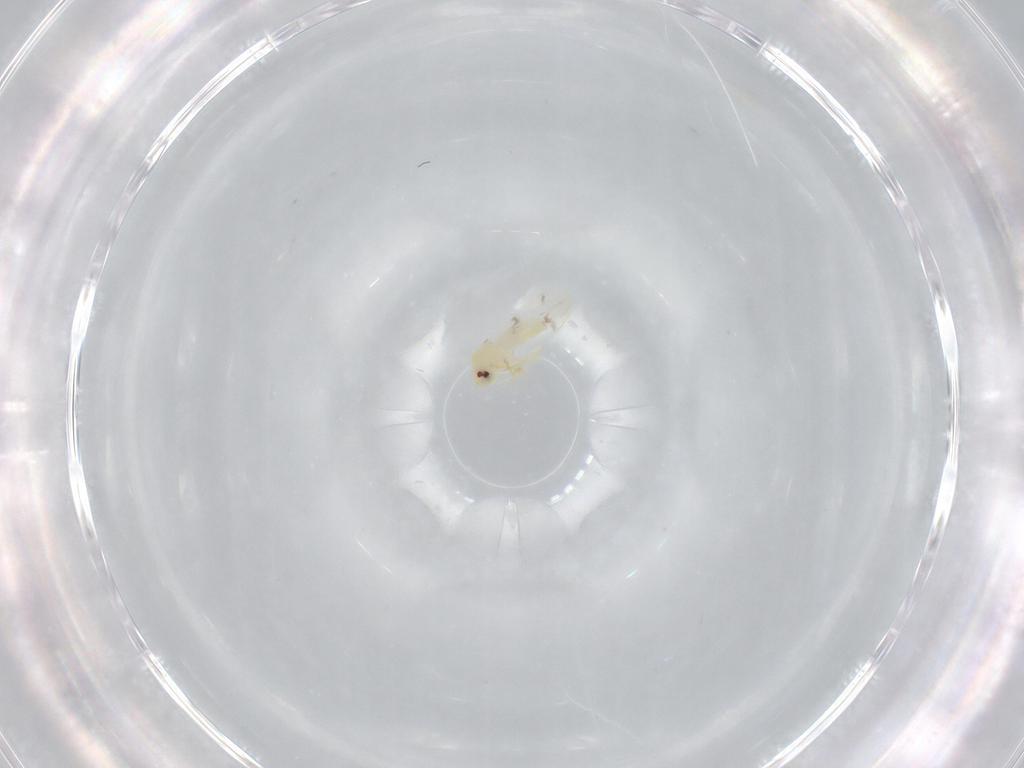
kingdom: Animalia
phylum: Arthropoda
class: Insecta
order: Hemiptera
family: Aleyrodidae
